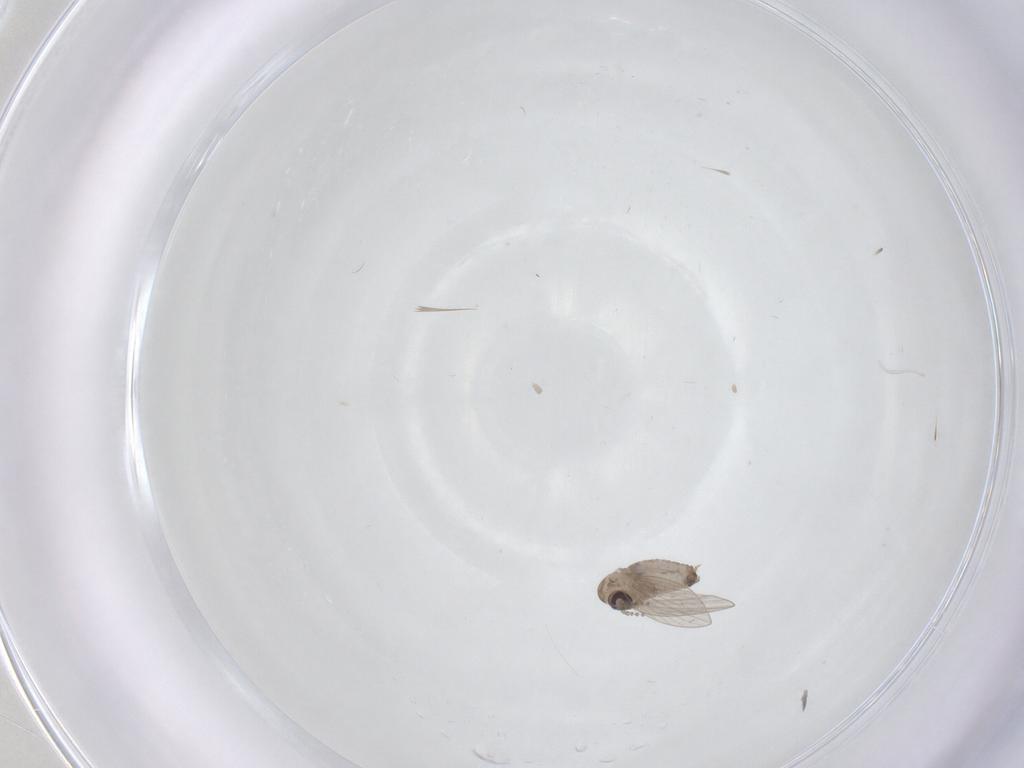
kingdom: Animalia
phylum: Arthropoda
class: Insecta
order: Diptera
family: Psychodidae
